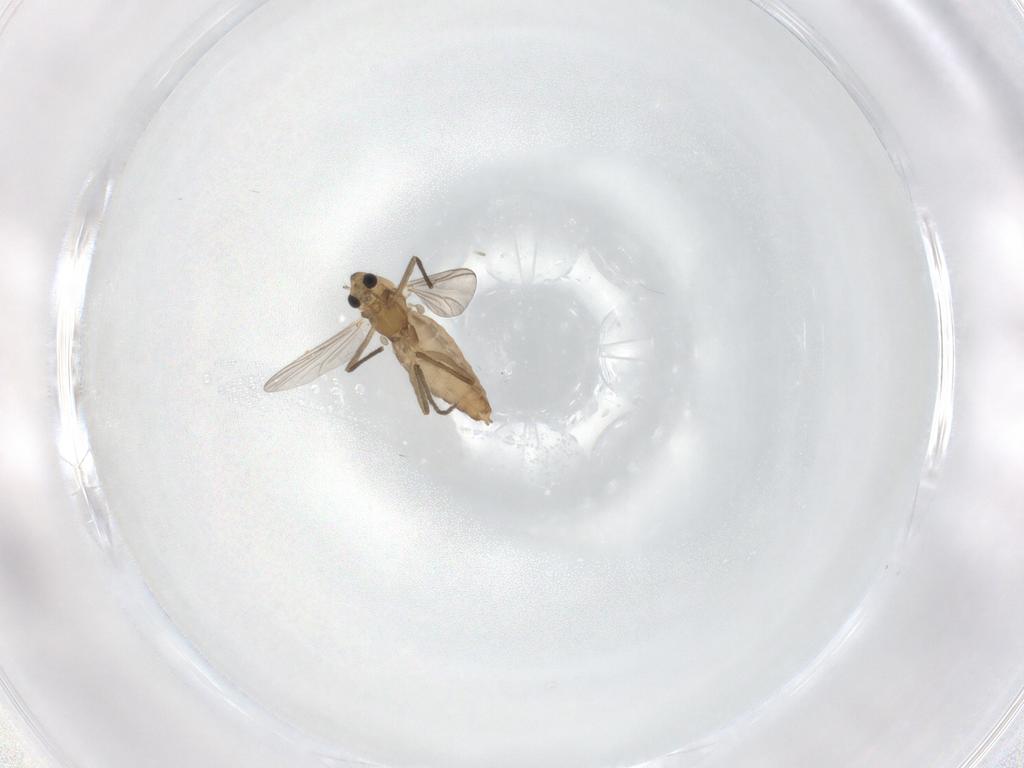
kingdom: Animalia
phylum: Arthropoda
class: Insecta
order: Diptera
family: Chironomidae
